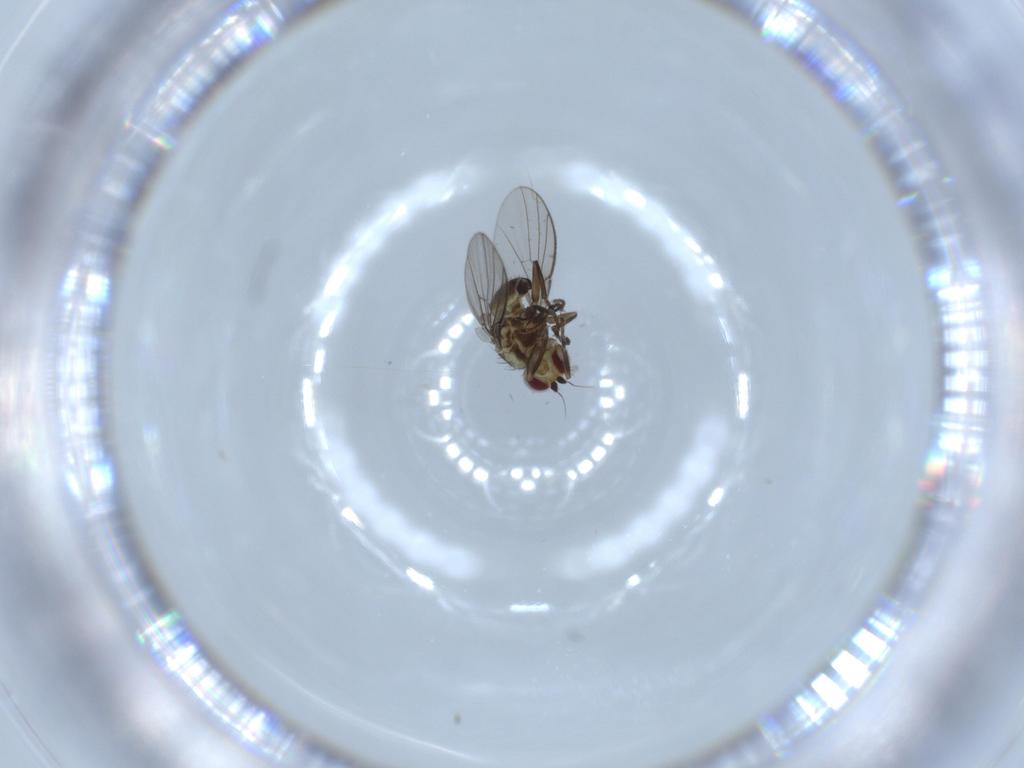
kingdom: Animalia
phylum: Arthropoda
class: Insecta
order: Diptera
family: Agromyzidae
